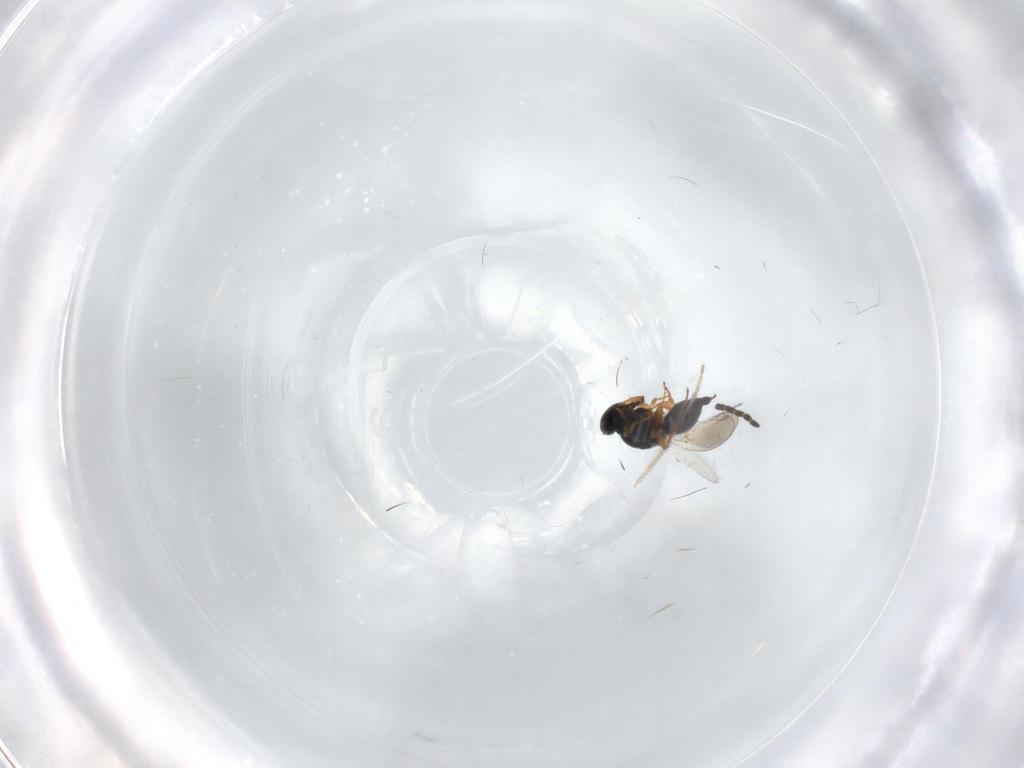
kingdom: Animalia
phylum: Arthropoda
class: Insecta
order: Hymenoptera
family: Platygastridae
